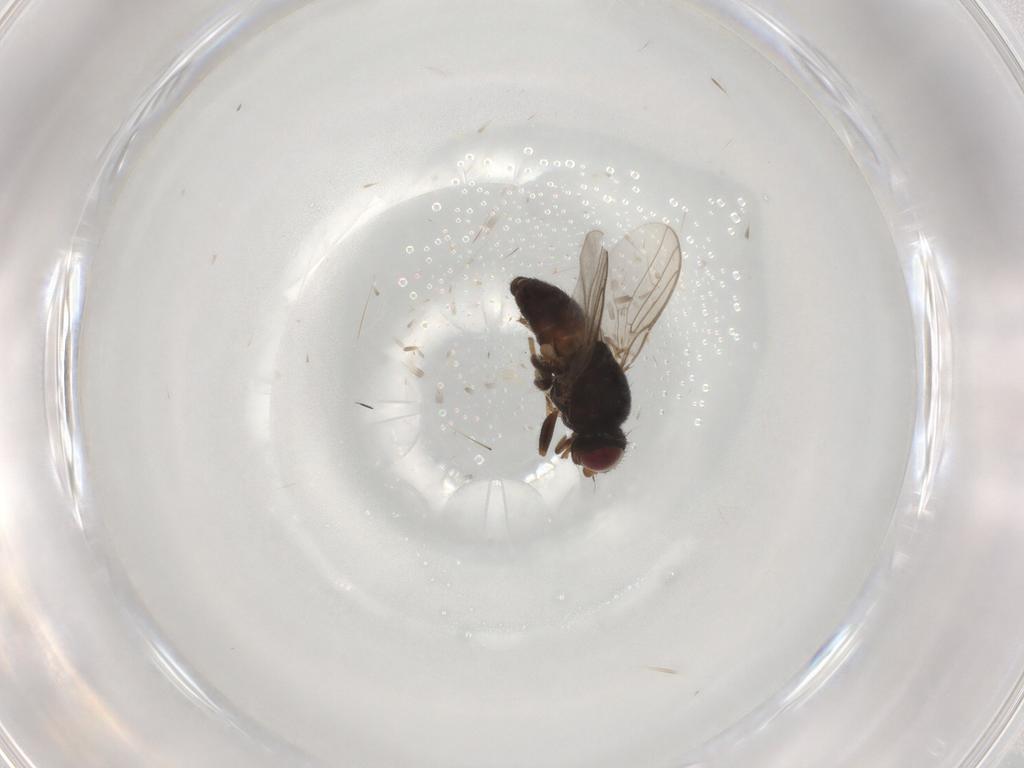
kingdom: Animalia
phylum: Arthropoda
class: Insecta
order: Diptera
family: Chloropidae
